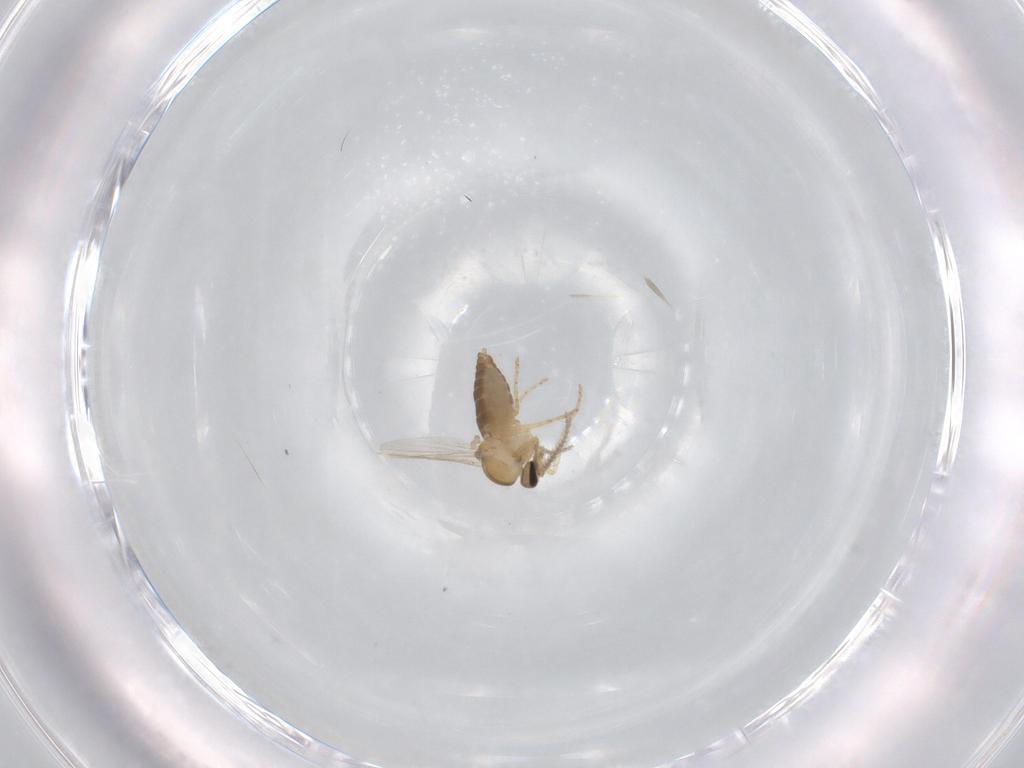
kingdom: Animalia
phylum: Arthropoda
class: Insecta
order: Diptera
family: Ceratopogonidae
